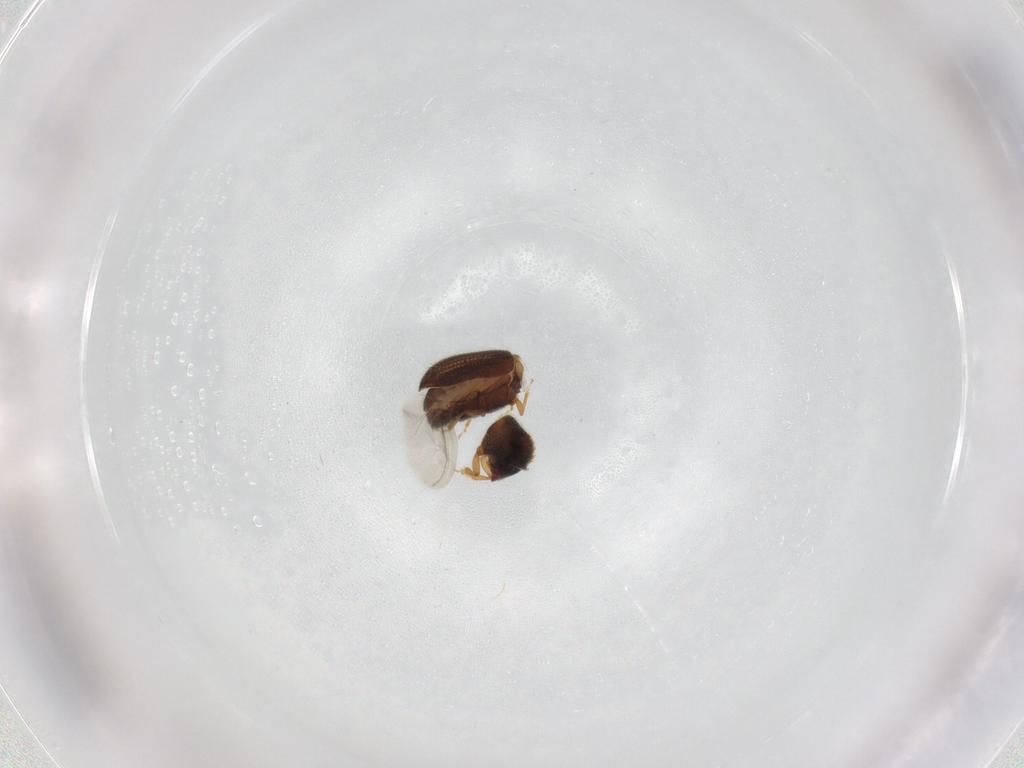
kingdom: Animalia
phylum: Arthropoda
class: Insecta
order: Coleoptera
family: Curculionidae
